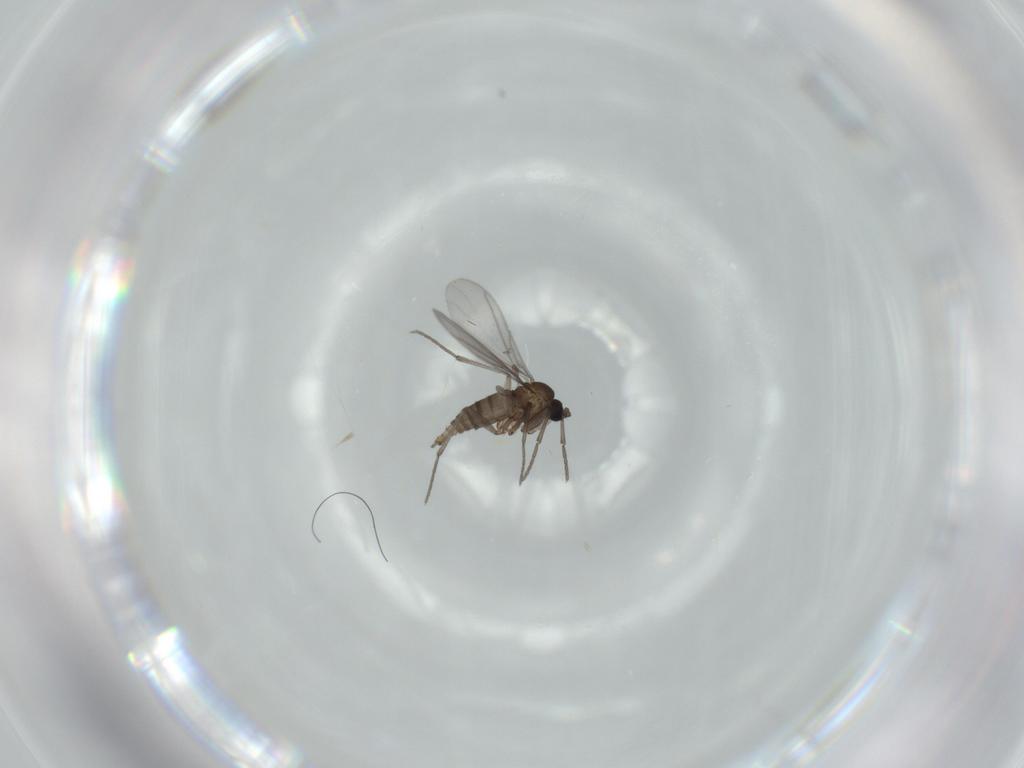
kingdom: Animalia
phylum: Arthropoda
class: Insecta
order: Diptera
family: Sciaridae
